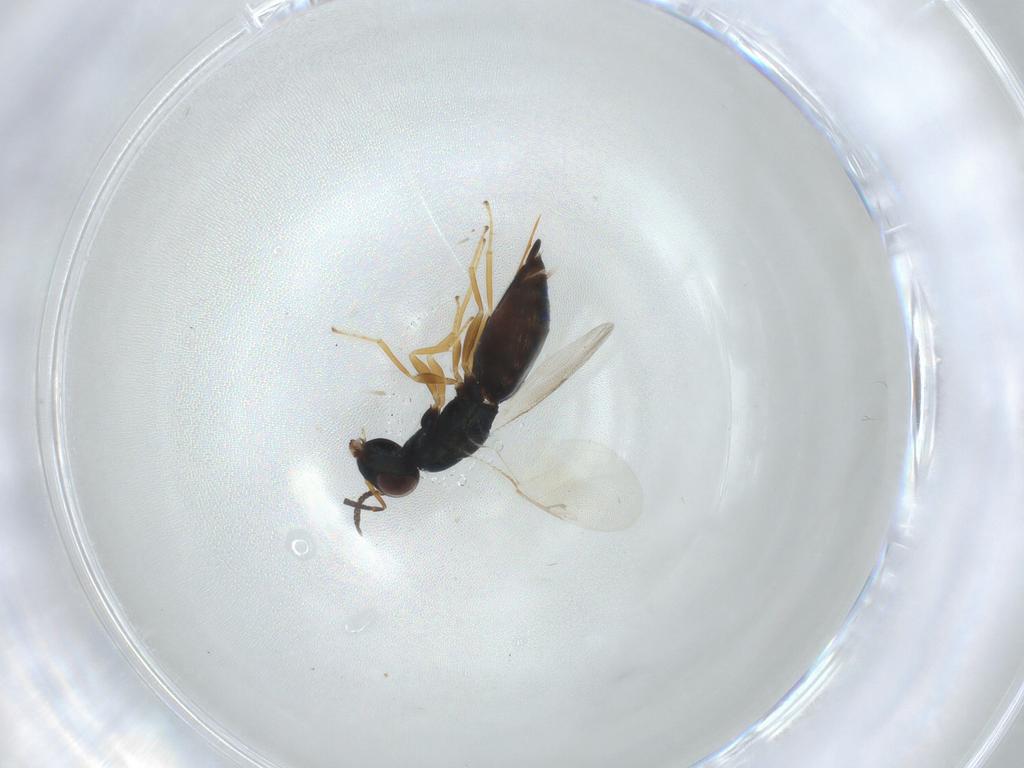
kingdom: Animalia
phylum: Arthropoda
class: Insecta
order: Hymenoptera
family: Pteromalidae
